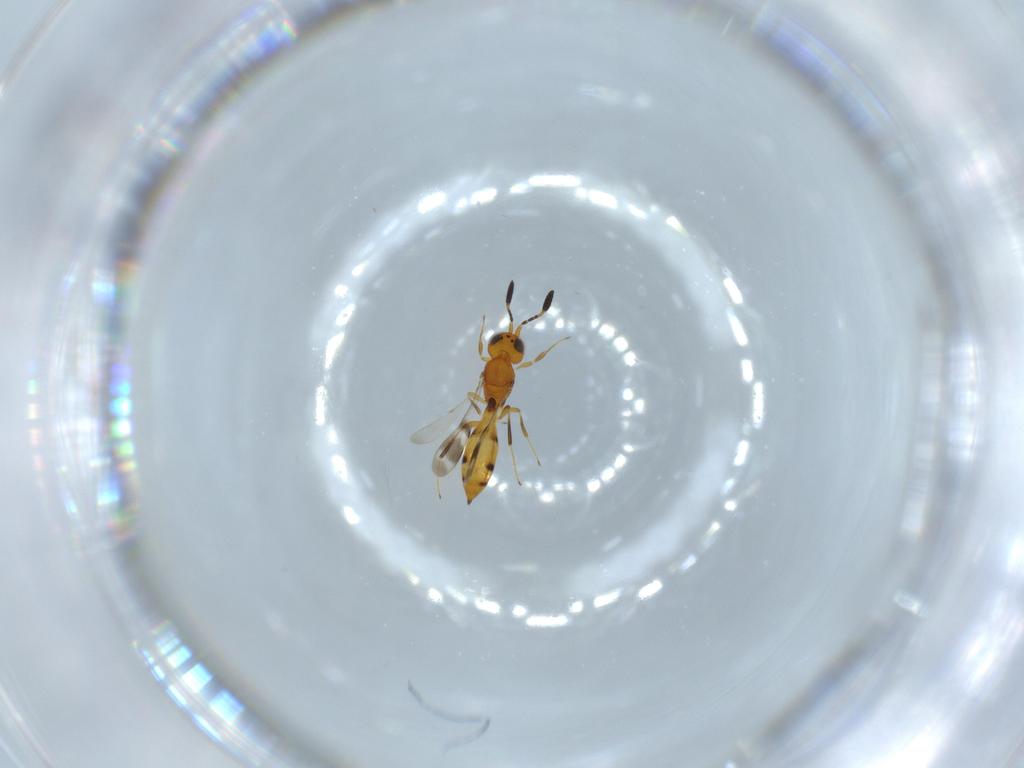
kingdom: Animalia
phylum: Arthropoda
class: Insecta
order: Hymenoptera
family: Scelionidae
